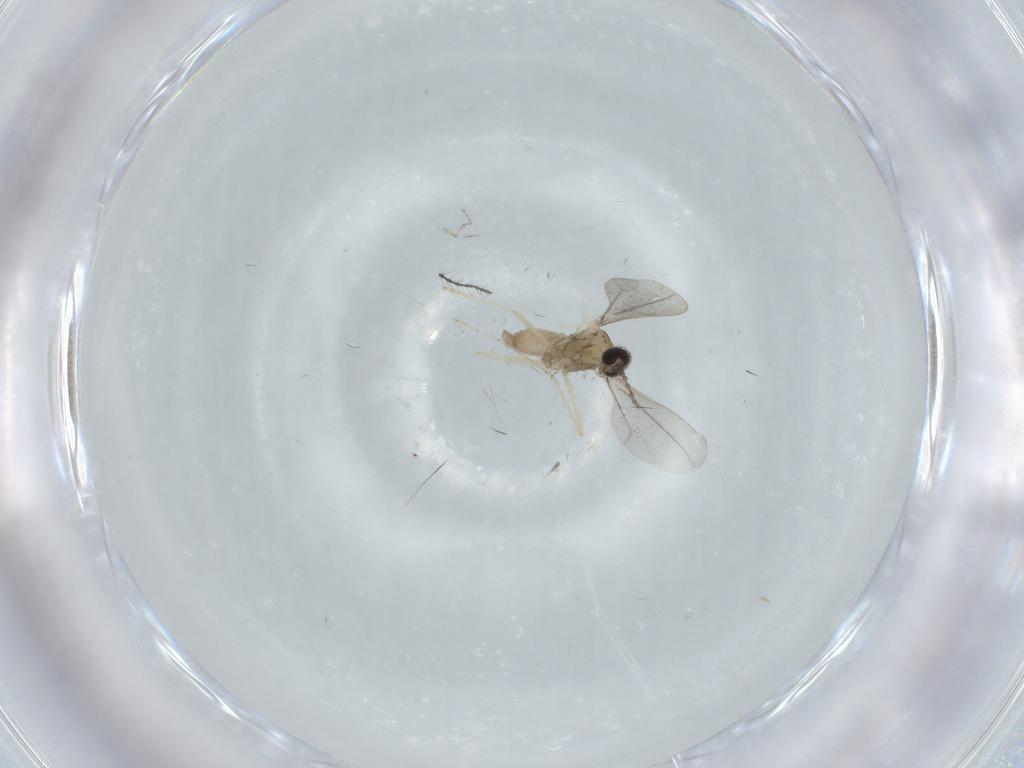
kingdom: Animalia
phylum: Arthropoda
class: Insecta
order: Diptera
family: Cecidomyiidae
